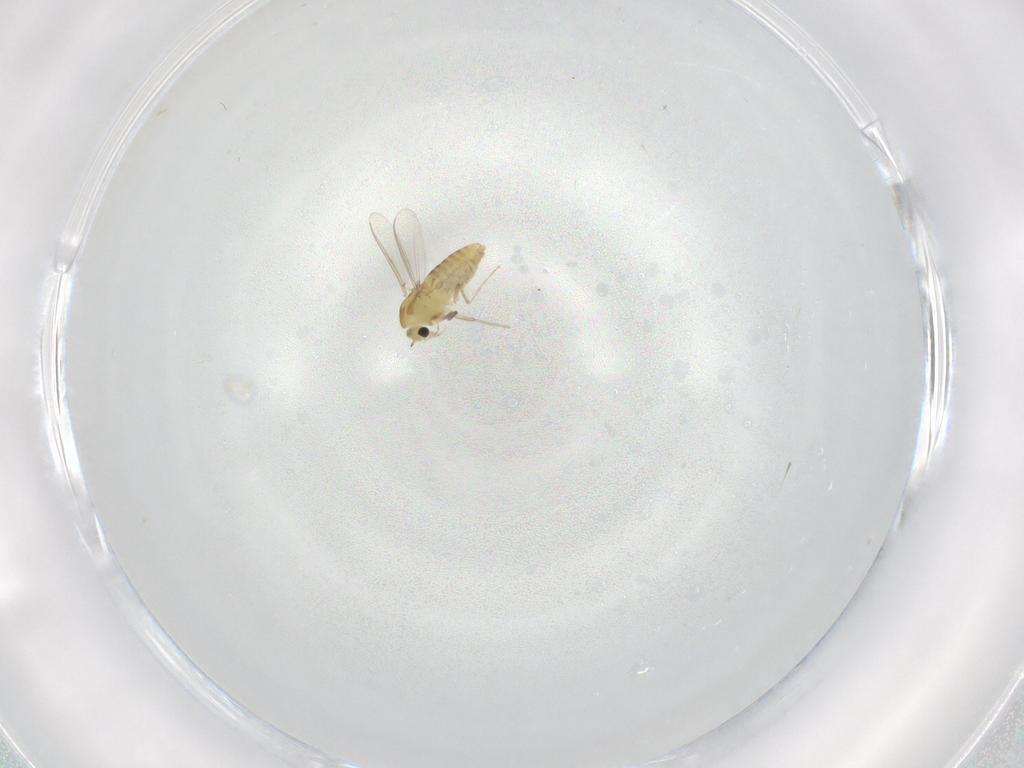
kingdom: Animalia
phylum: Arthropoda
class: Insecta
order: Diptera
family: Chironomidae
